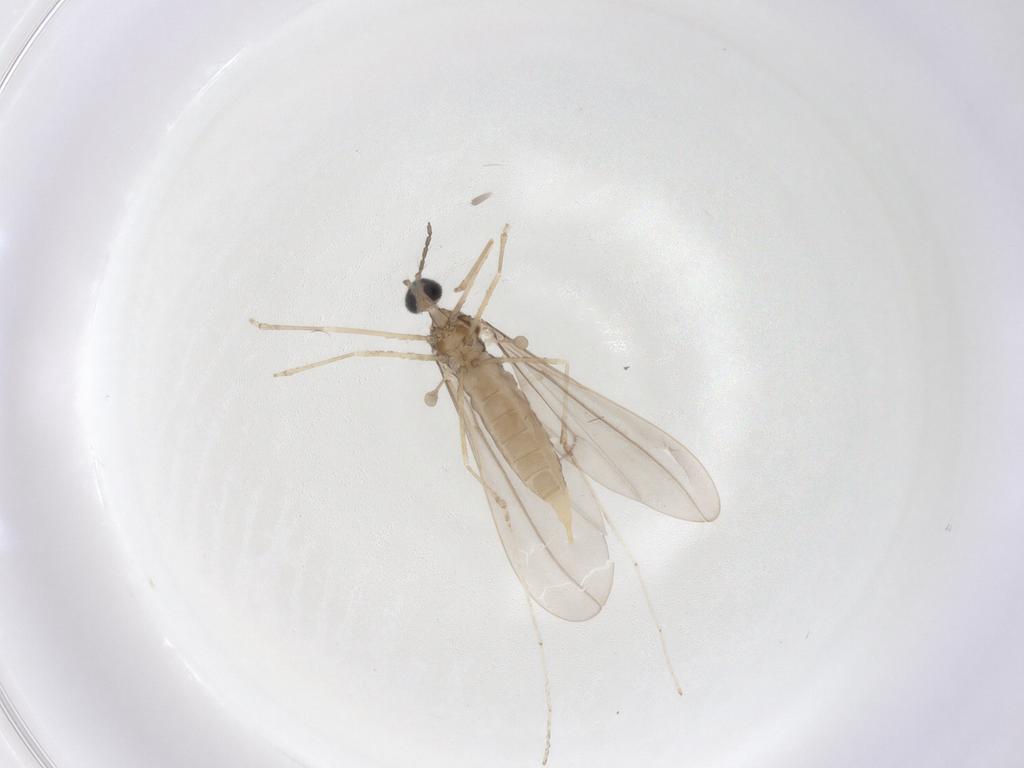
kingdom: Animalia
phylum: Arthropoda
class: Insecta
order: Diptera
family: Cecidomyiidae
